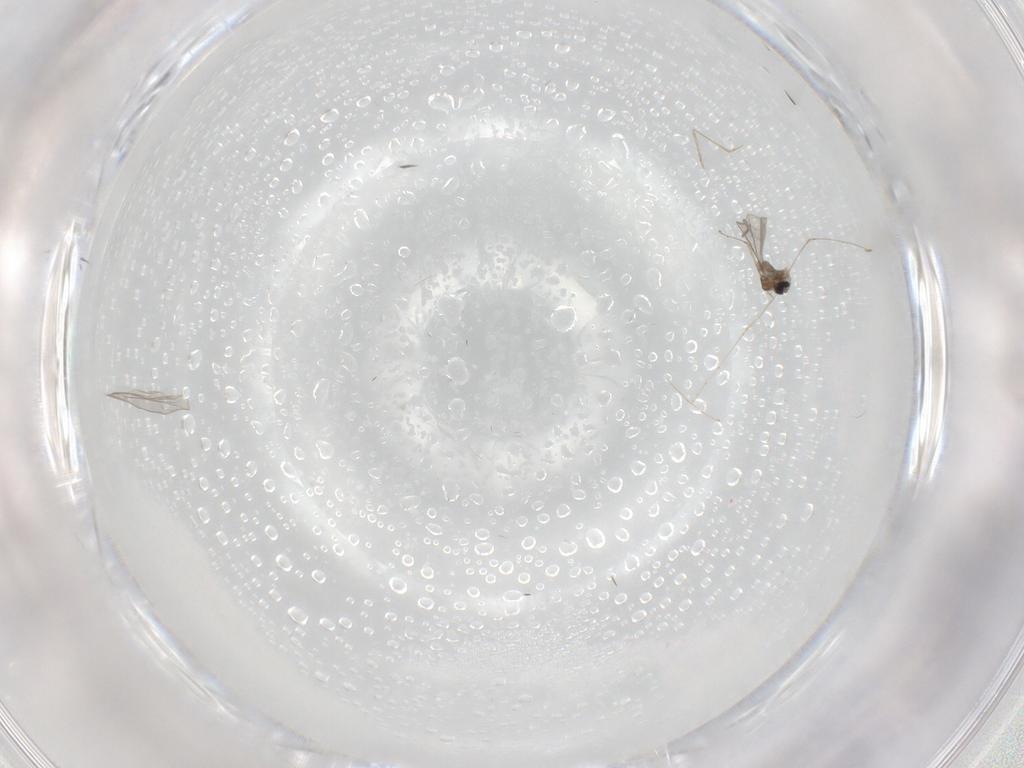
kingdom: Animalia
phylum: Arthropoda
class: Insecta
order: Diptera
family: Cecidomyiidae
